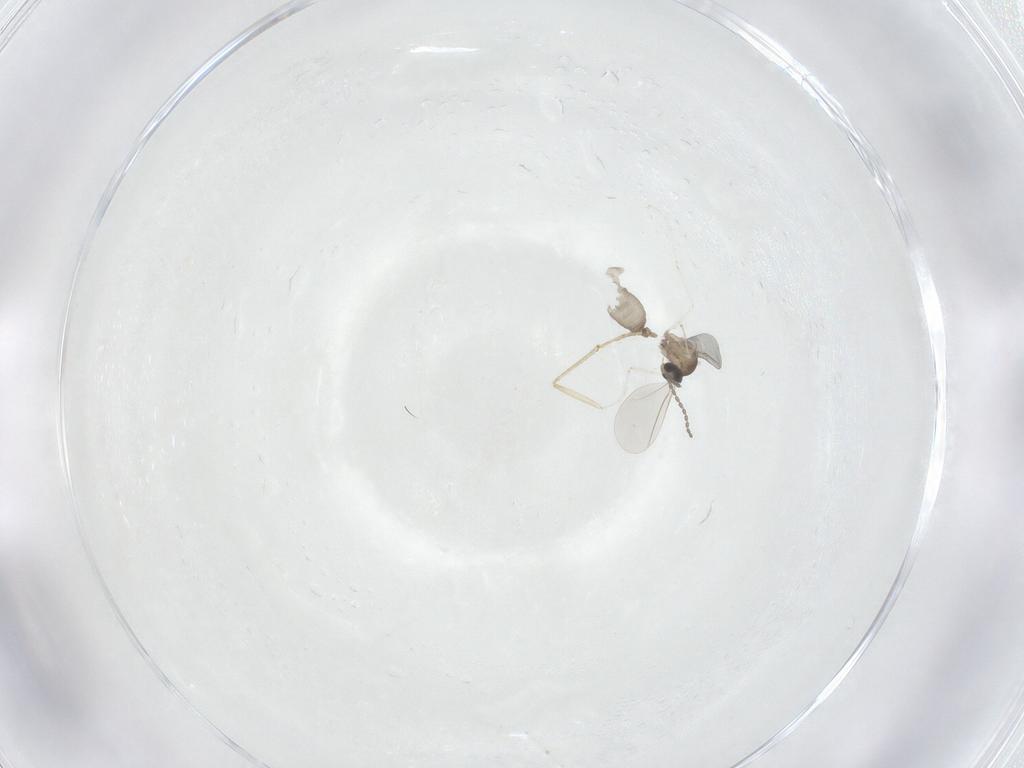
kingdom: Animalia
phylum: Arthropoda
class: Insecta
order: Diptera
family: Cecidomyiidae
